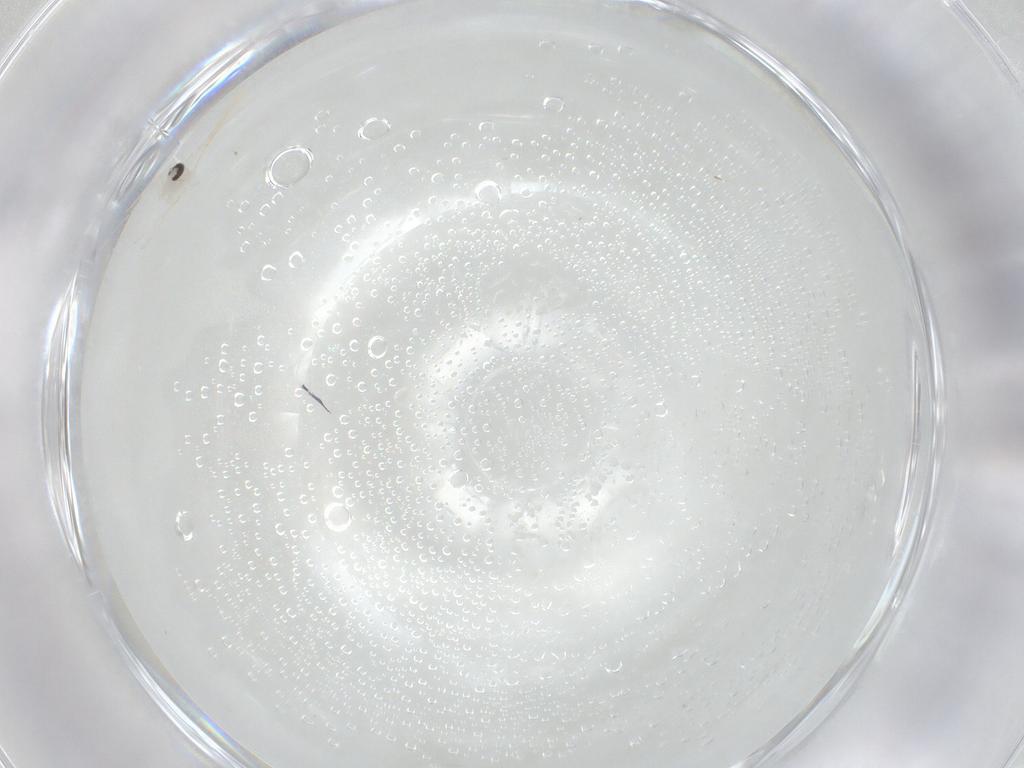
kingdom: Animalia
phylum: Arthropoda
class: Insecta
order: Diptera
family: Cecidomyiidae
